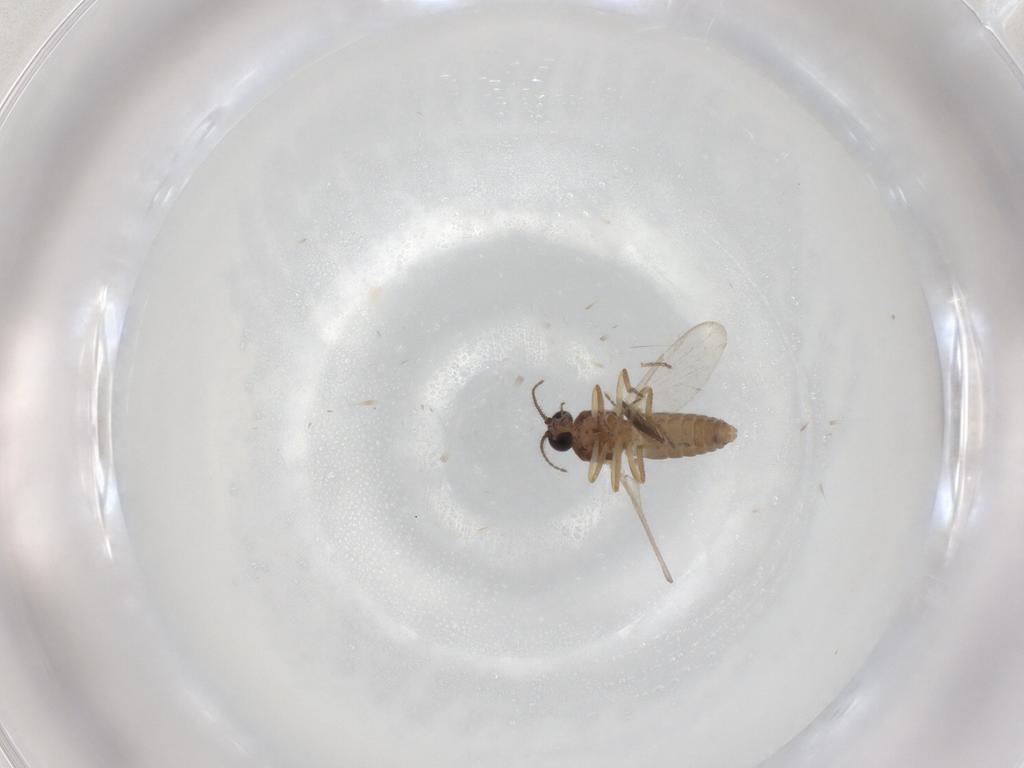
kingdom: Animalia
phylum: Arthropoda
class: Insecta
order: Diptera
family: Ceratopogonidae
